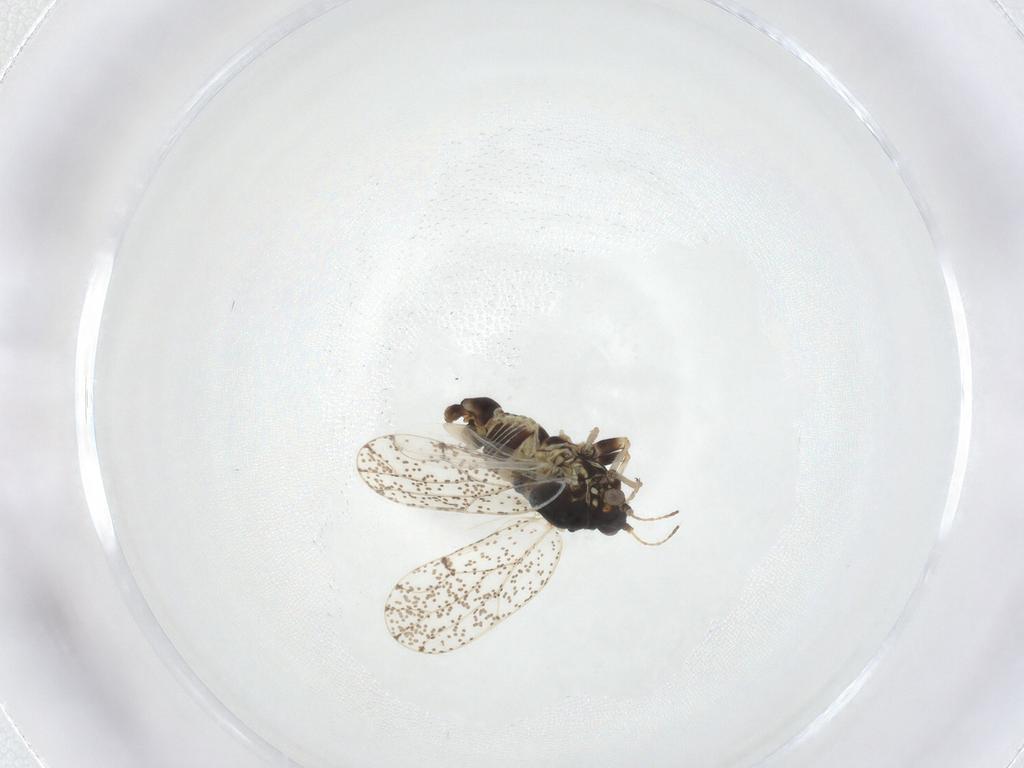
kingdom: Animalia
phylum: Arthropoda
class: Insecta
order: Hemiptera
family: Aphalaridae
